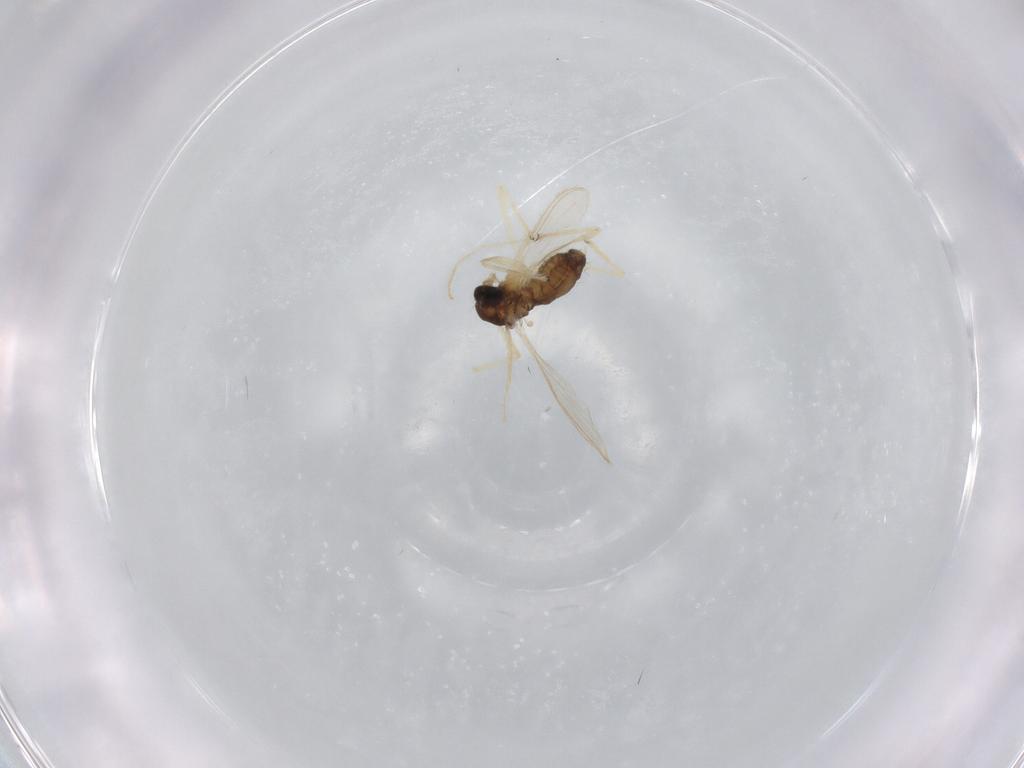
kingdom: Animalia
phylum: Arthropoda
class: Insecta
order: Diptera
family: Chironomidae
